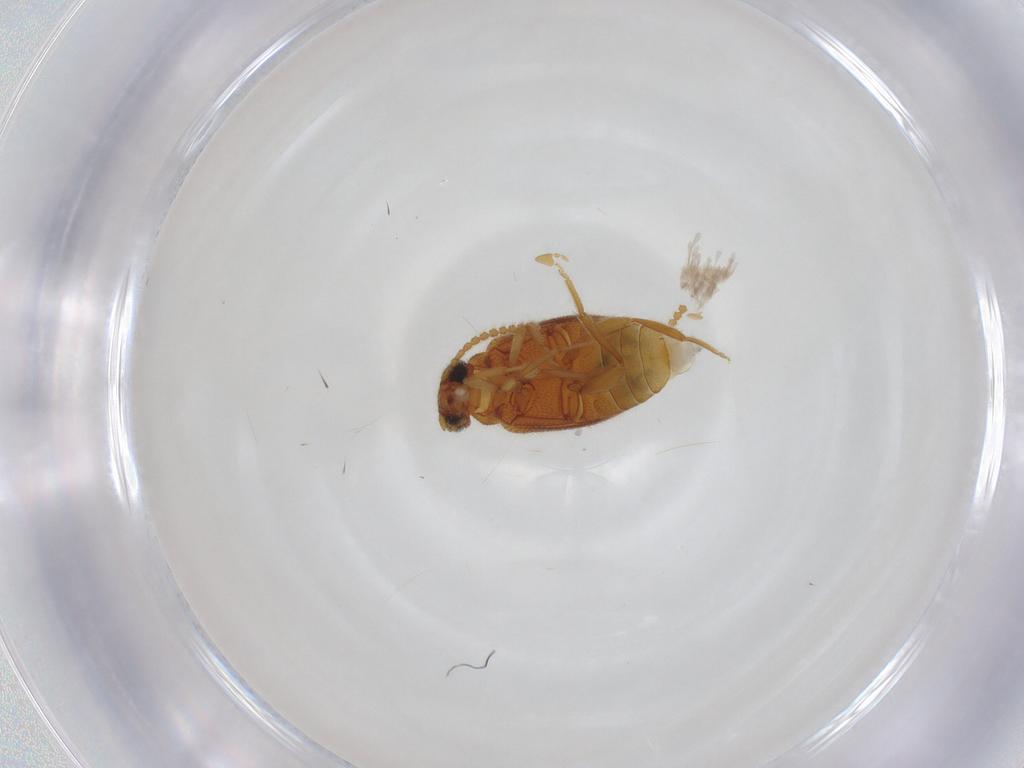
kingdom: Animalia
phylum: Arthropoda
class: Insecta
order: Coleoptera
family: Aderidae
